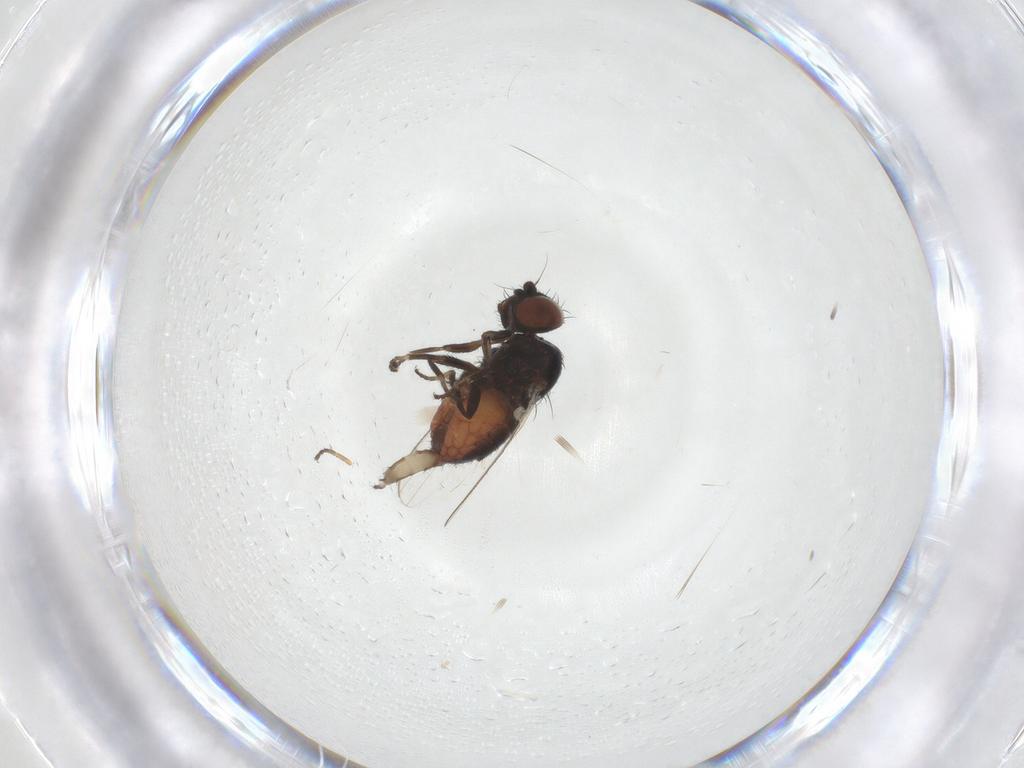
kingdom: Animalia
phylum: Arthropoda
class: Insecta
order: Diptera
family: Milichiidae
